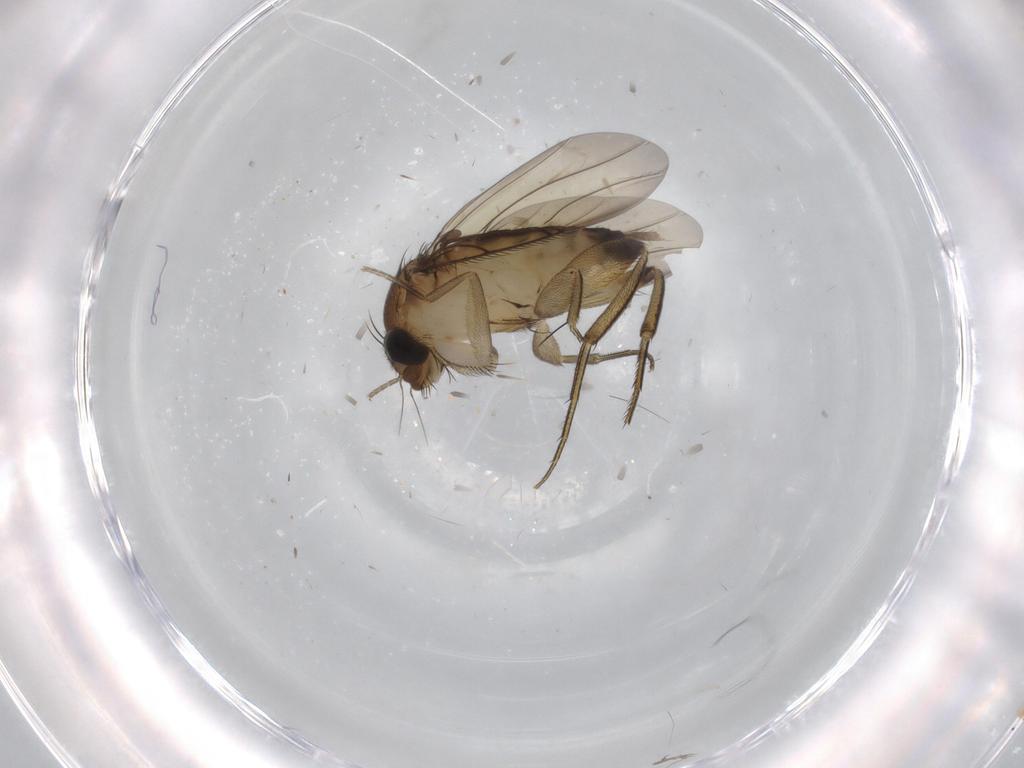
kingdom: Animalia
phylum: Arthropoda
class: Insecta
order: Diptera
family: Phoridae
